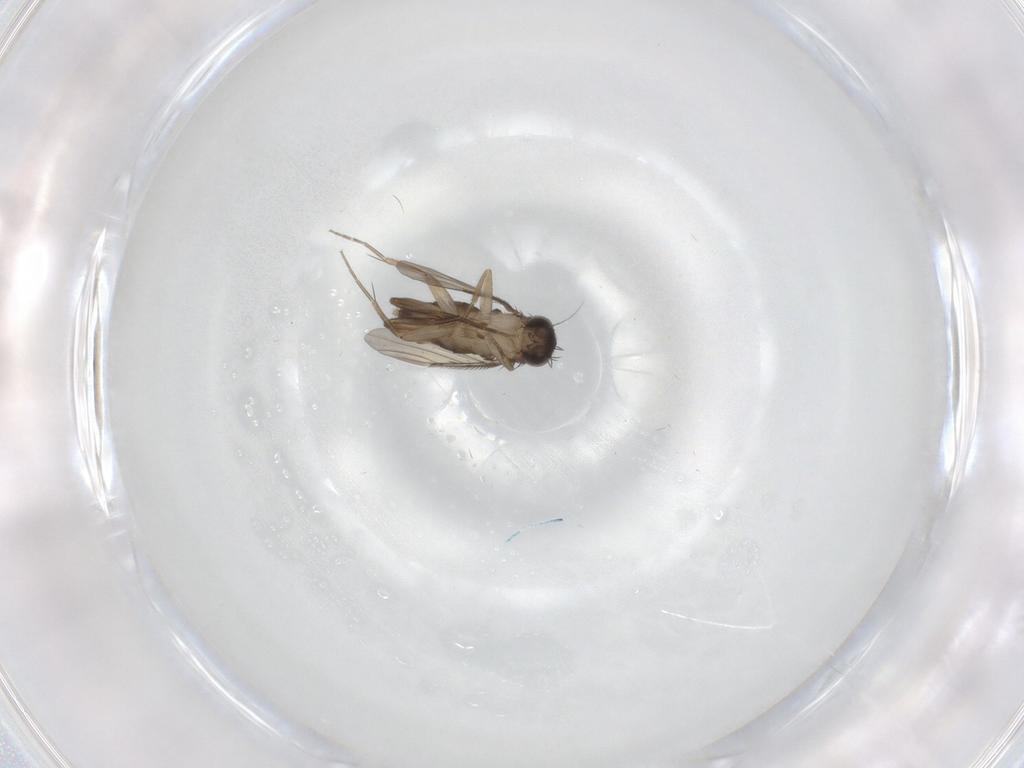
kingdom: Animalia
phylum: Arthropoda
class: Insecta
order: Diptera
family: Phoridae
